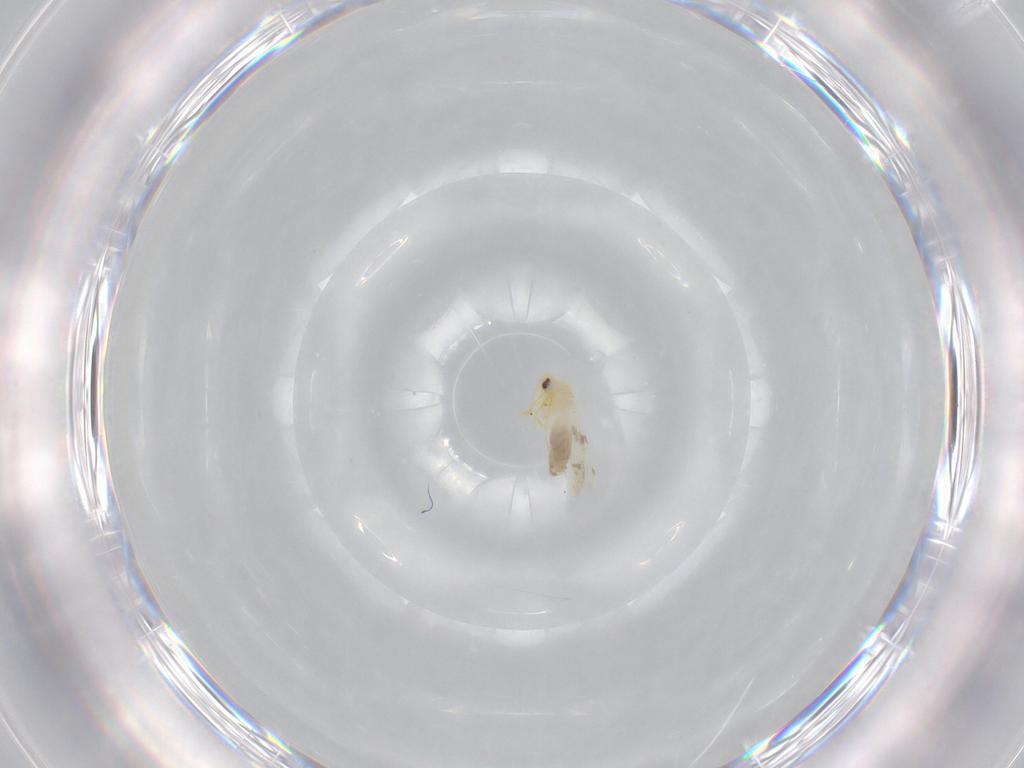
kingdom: Animalia
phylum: Arthropoda
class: Insecta
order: Hemiptera
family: Aleyrodidae
